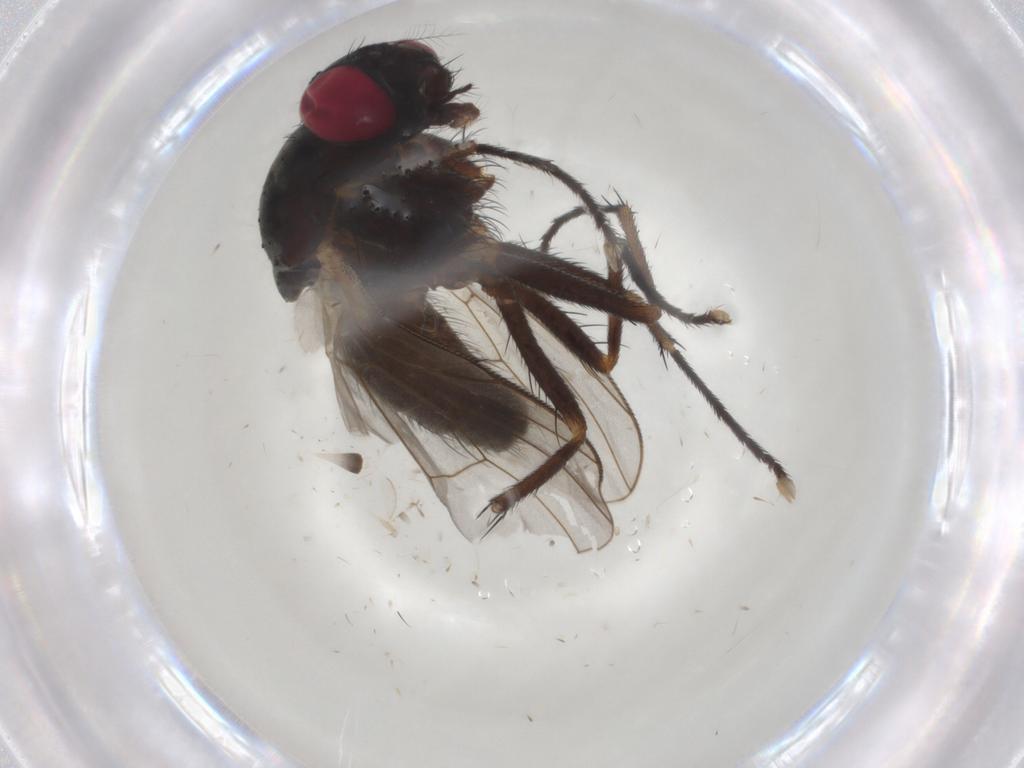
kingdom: Animalia
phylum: Arthropoda
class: Insecta
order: Diptera
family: Muscidae
